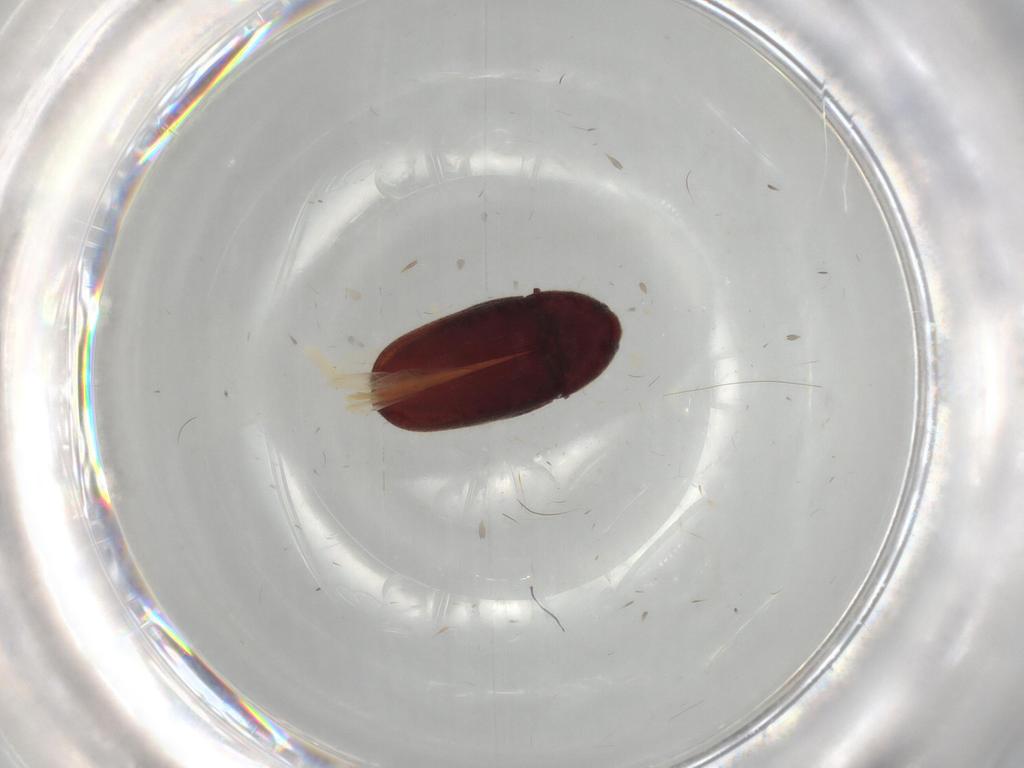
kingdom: Animalia
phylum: Arthropoda
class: Insecta
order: Coleoptera
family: Throscidae
